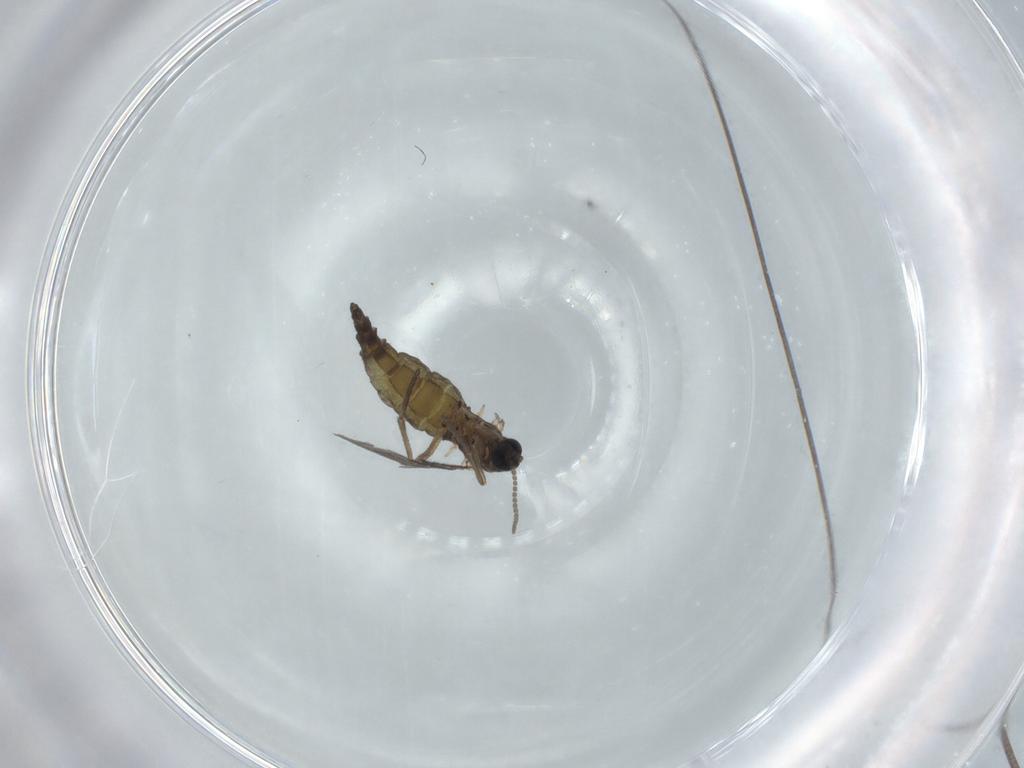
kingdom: Animalia
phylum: Arthropoda
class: Insecta
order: Diptera
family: Sciaridae
